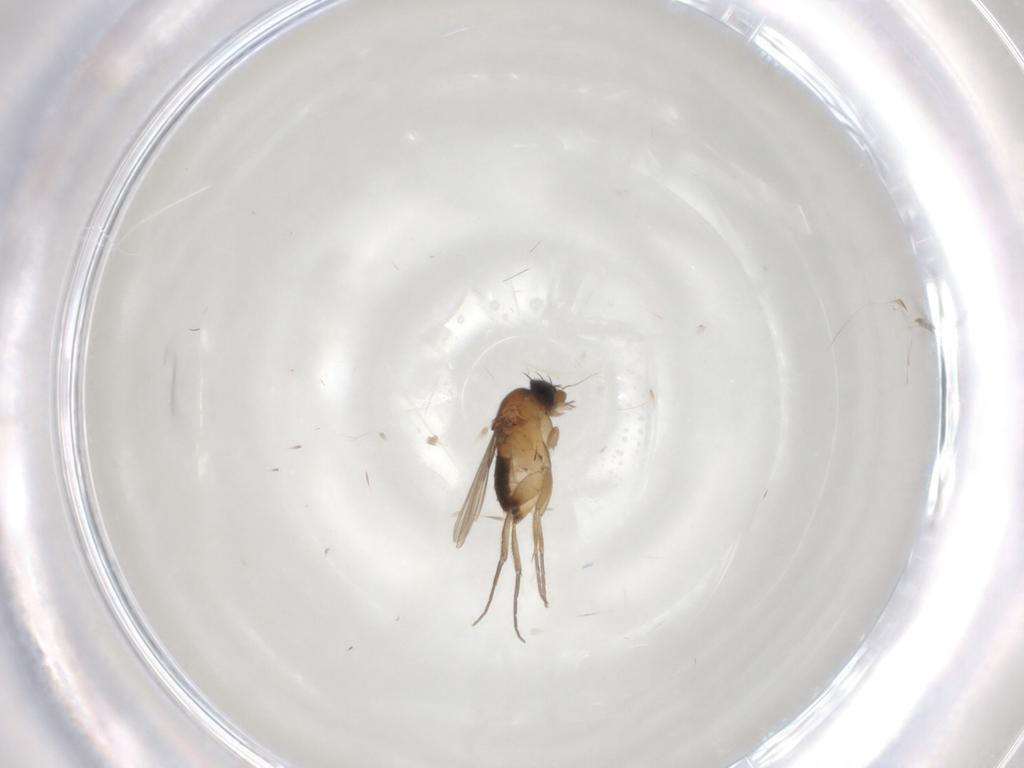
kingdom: Animalia
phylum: Arthropoda
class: Insecta
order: Diptera
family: Phoridae
